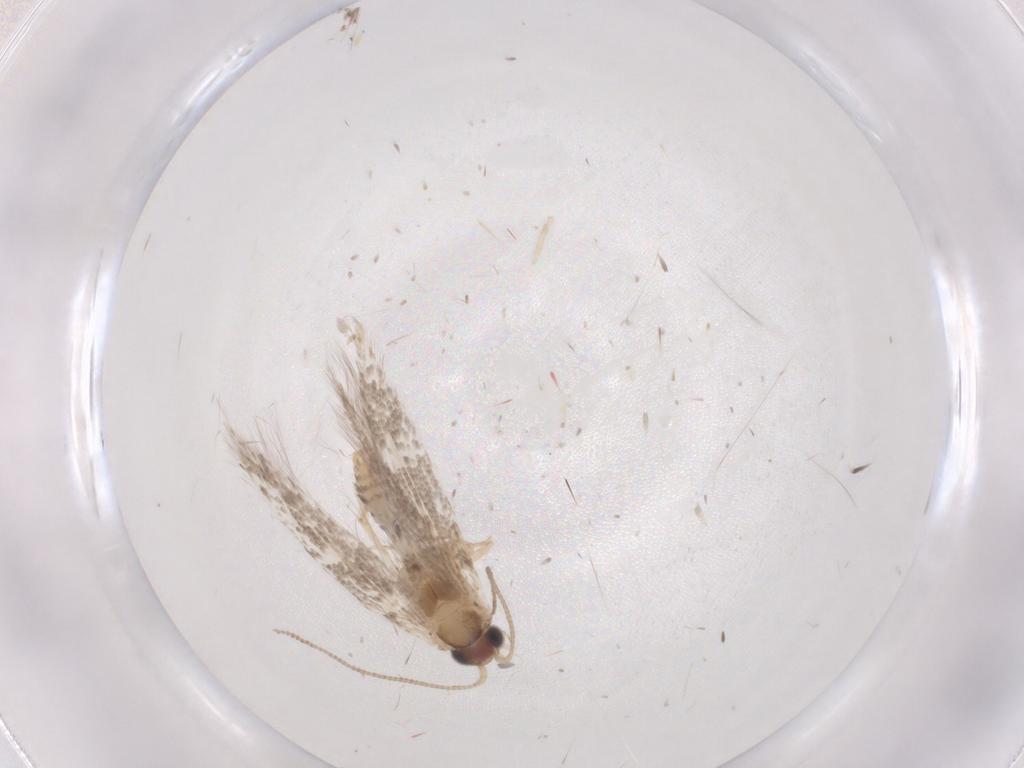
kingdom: Animalia
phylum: Arthropoda
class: Insecta
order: Lepidoptera
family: Tineidae
